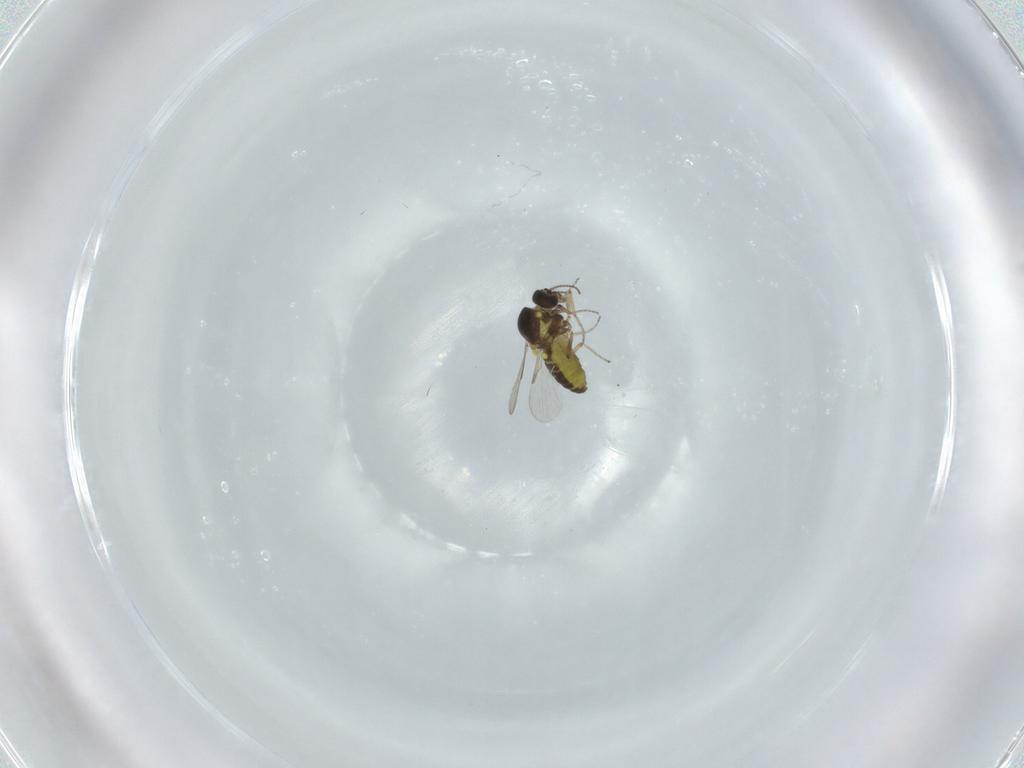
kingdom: Animalia
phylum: Arthropoda
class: Insecta
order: Diptera
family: Ceratopogonidae
